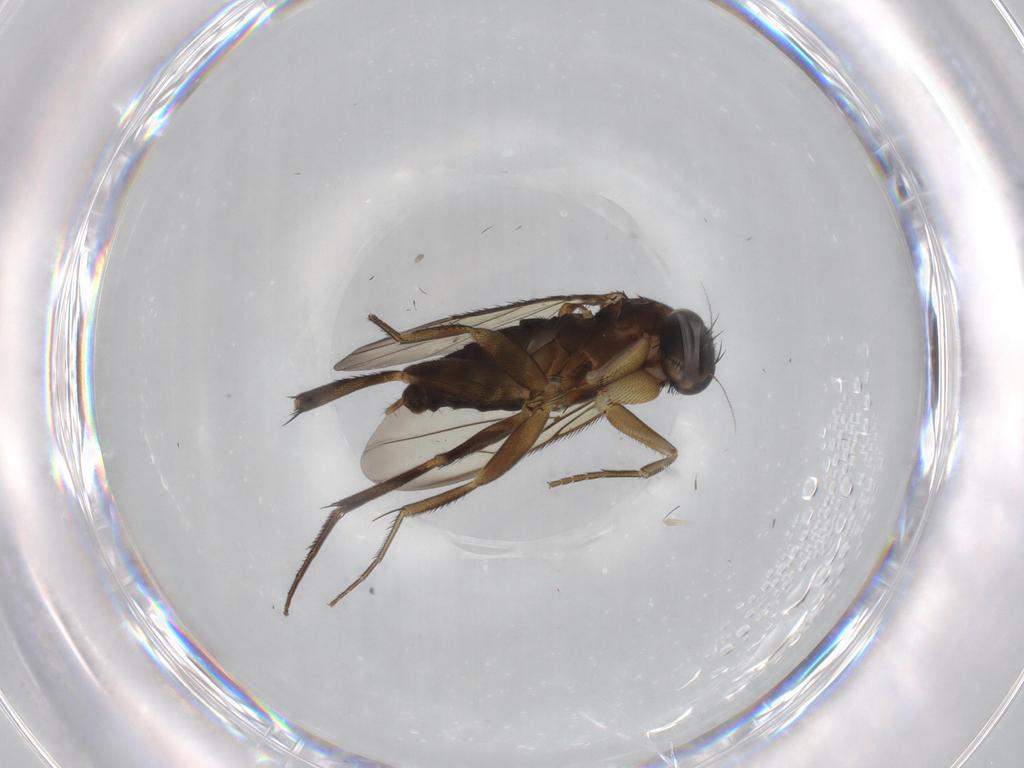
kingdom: Animalia
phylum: Arthropoda
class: Insecta
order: Diptera
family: Phoridae
